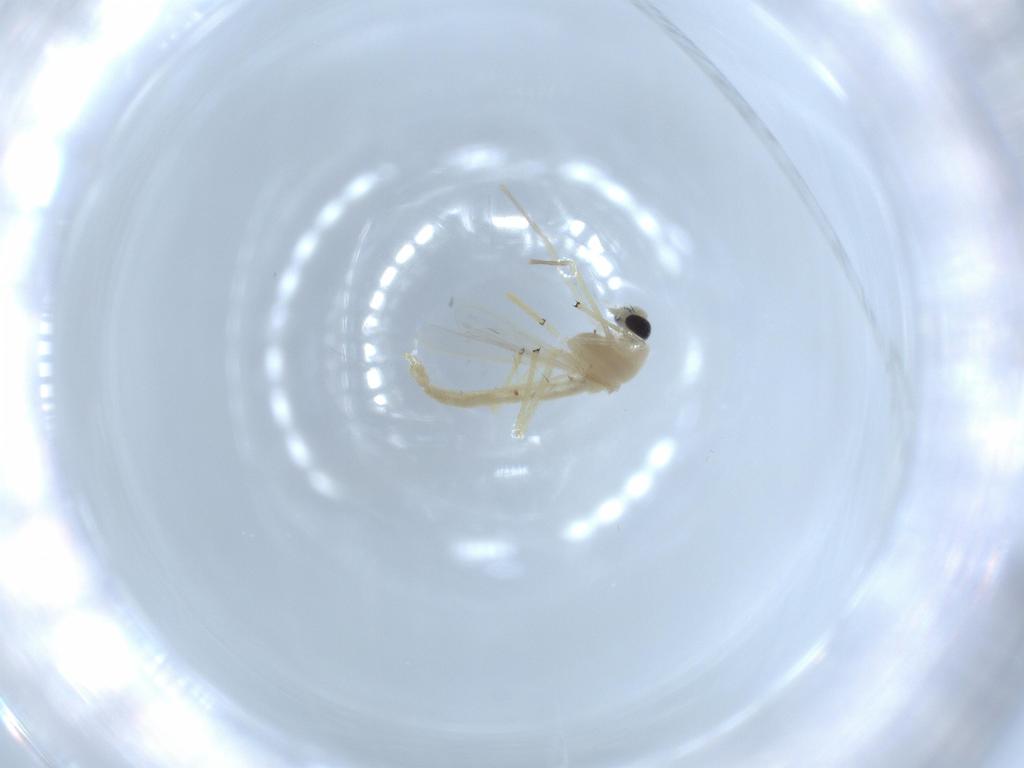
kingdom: Animalia
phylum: Arthropoda
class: Insecta
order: Diptera
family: Chironomidae
